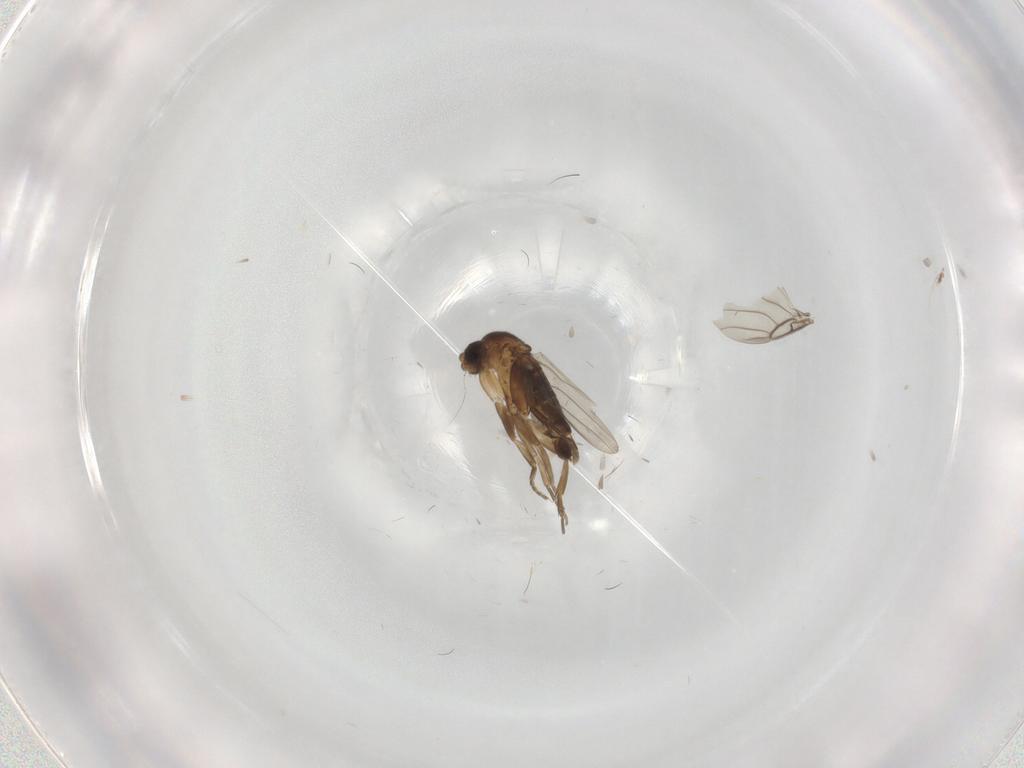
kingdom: Animalia
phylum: Arthropoda
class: Insecta
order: Diptera
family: Phoridae
